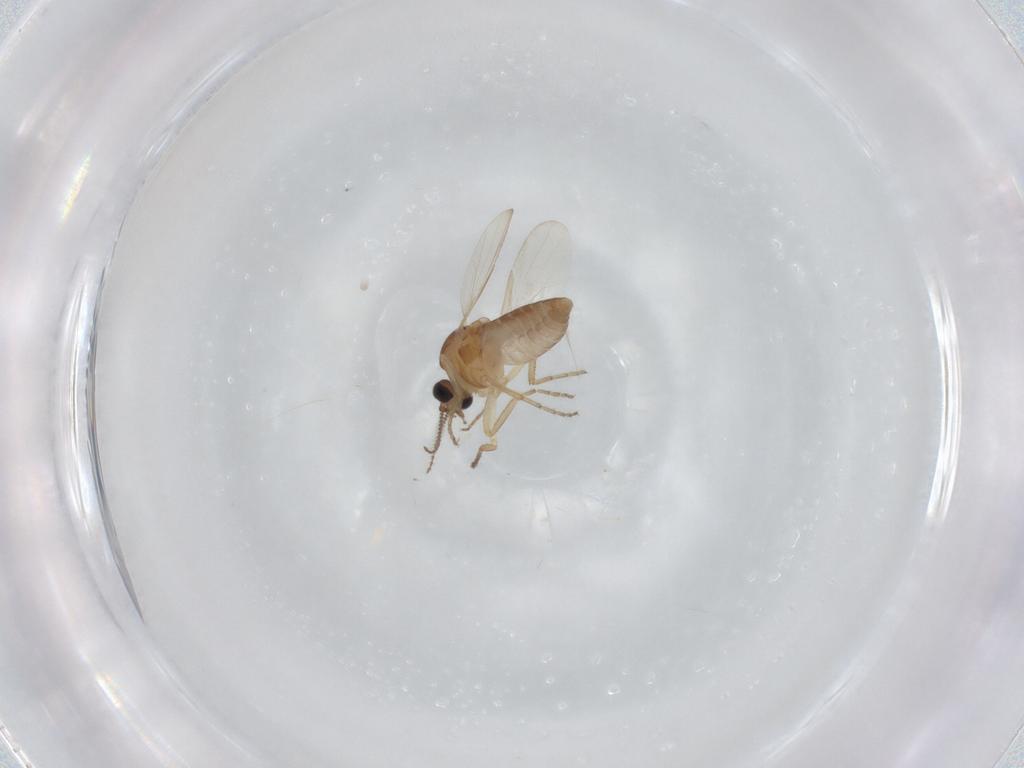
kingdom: Animalia
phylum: Arthropoda
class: Insecta
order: Diptera
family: Ceratopogonidae
